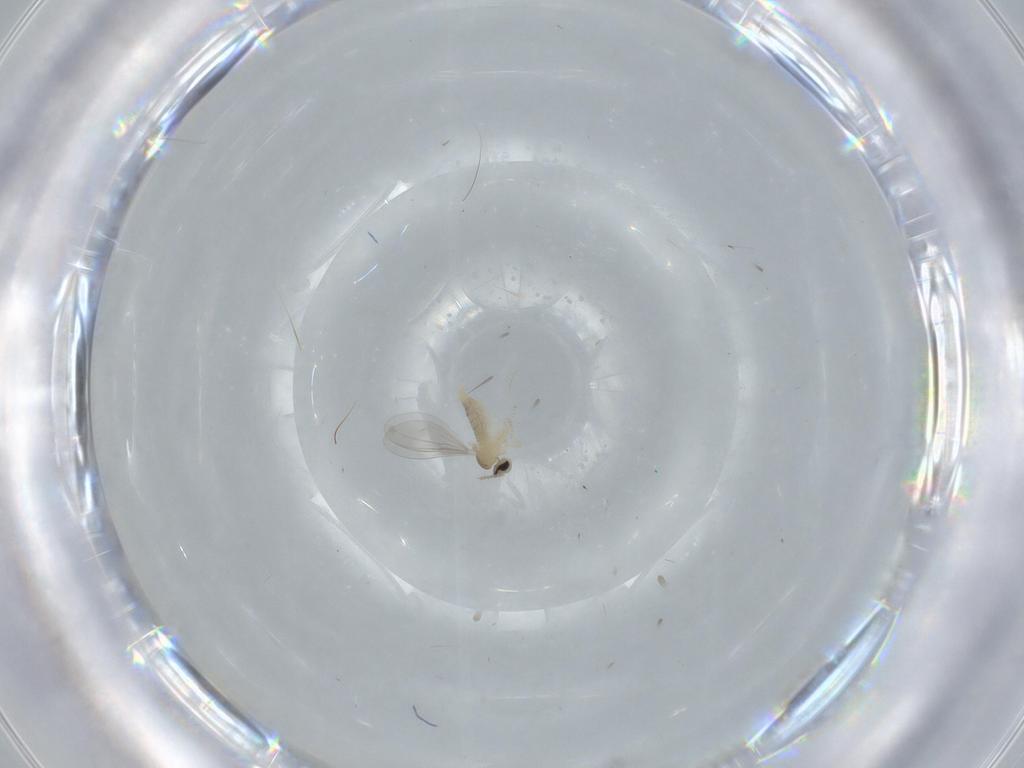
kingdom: Animalia
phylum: Arthropoda
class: Insecta
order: Diptera
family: Cecidomyiidae
